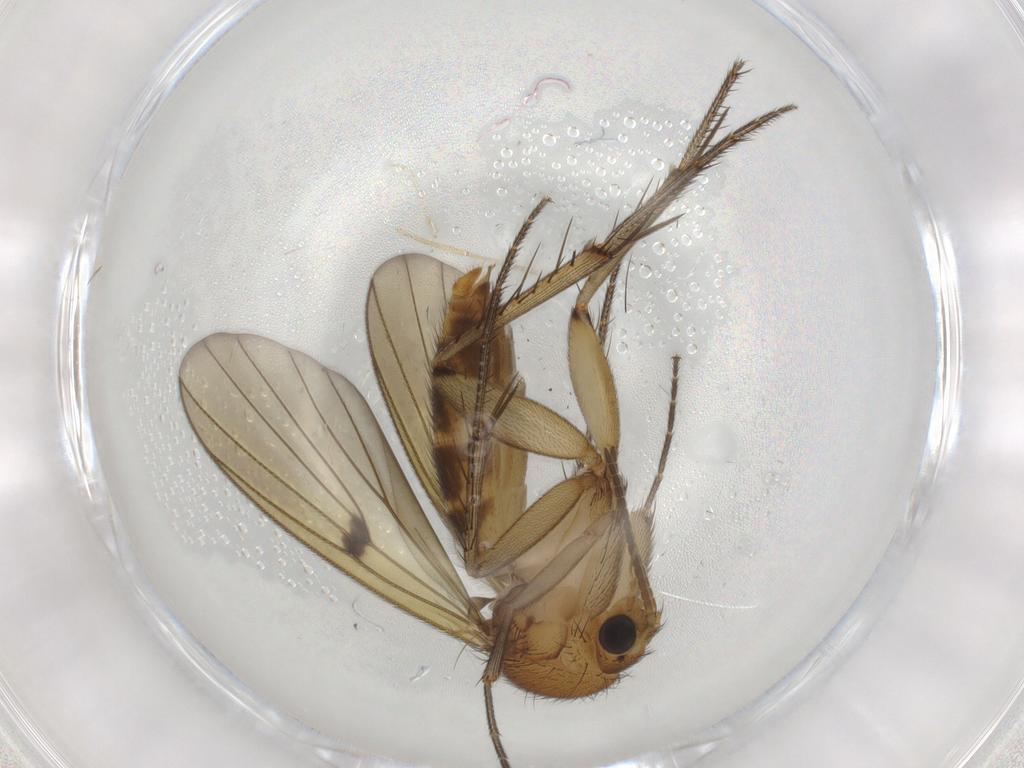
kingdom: Animalia
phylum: Arthropoda
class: Insecta
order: Diptera
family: Mycetophilidae
